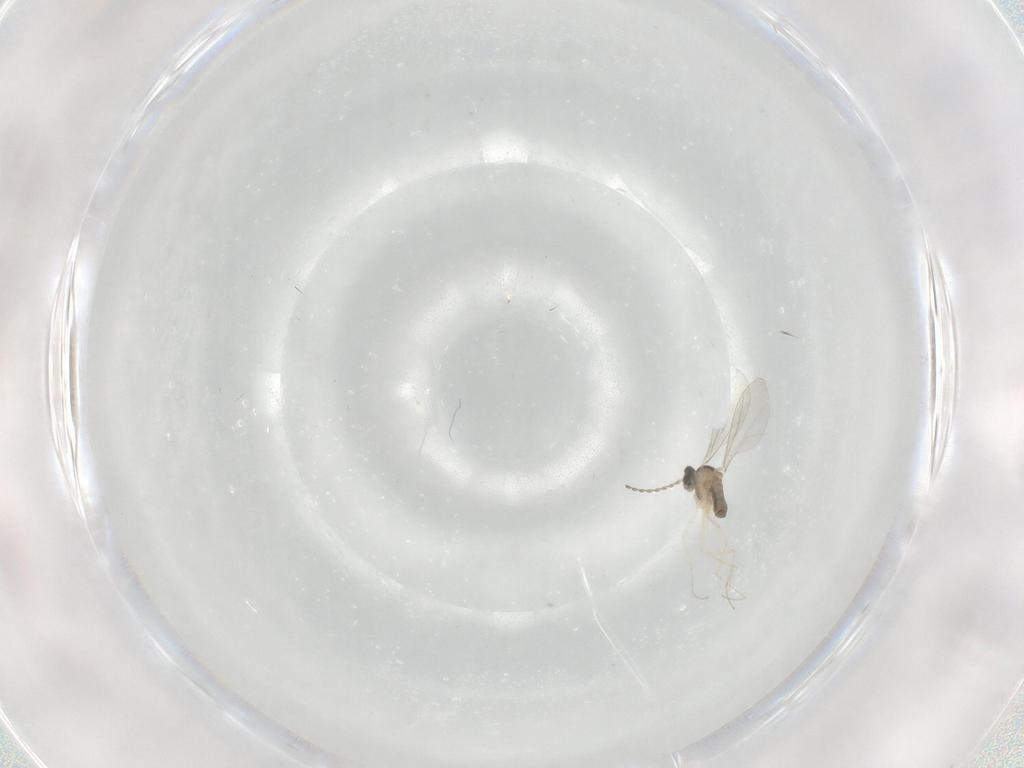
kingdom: Animalia
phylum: Arthropoda
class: Insecta
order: Diptera
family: Cecidomyiidae
